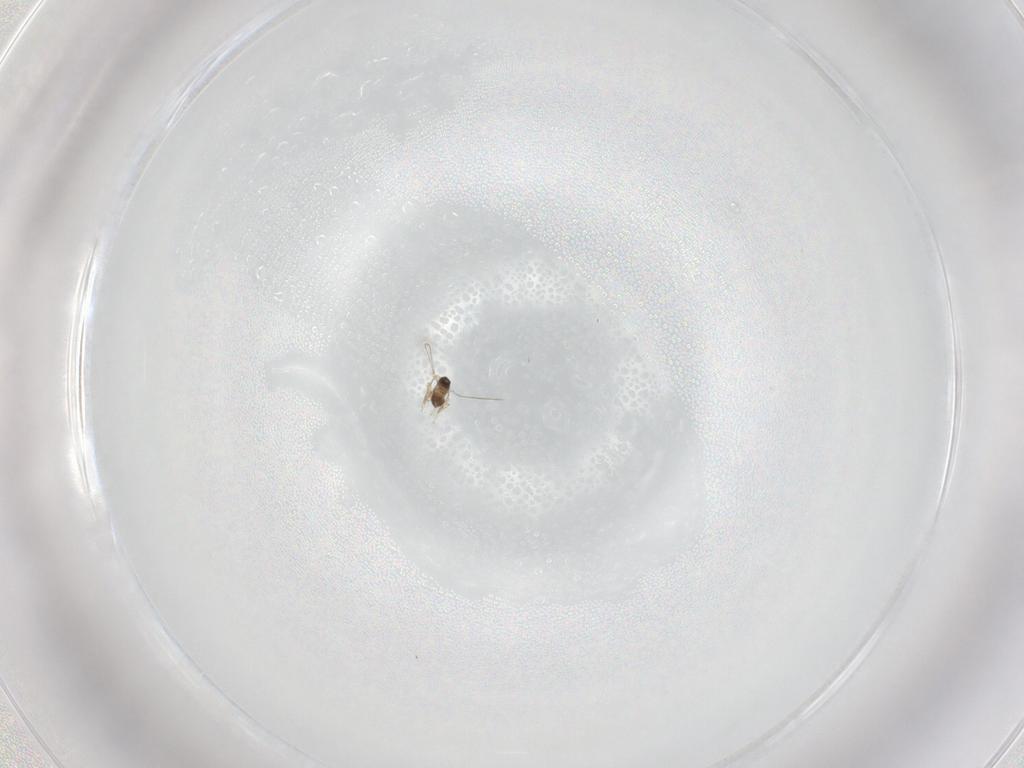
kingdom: Animalia
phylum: Arthropoda
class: Insecta
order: Hymenoptera
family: Mymaridae
